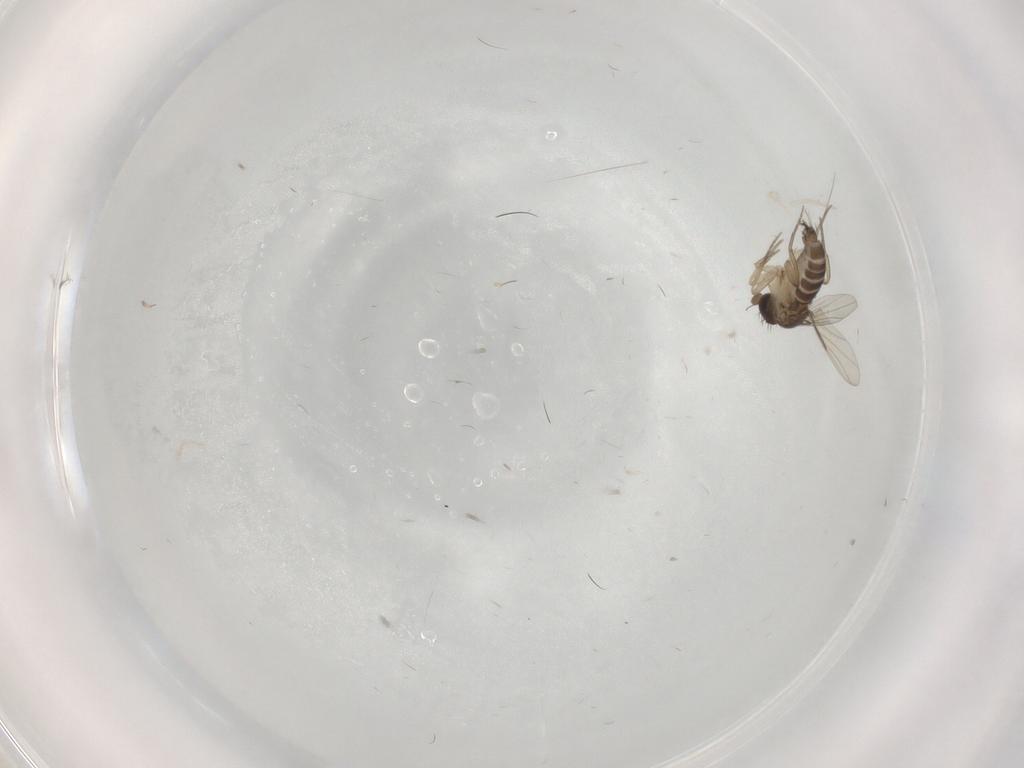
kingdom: Animalia
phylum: Arthropoda
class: Insecta
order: Diptera
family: Phoridae
